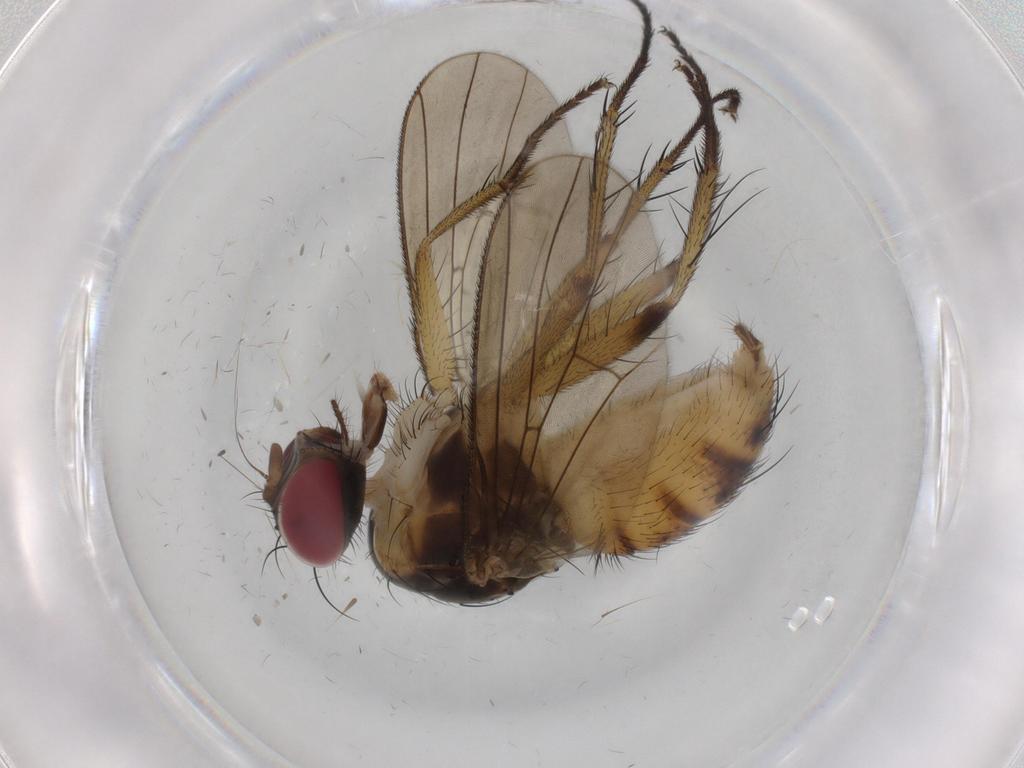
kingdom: Animalia
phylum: Arthropoda
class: Insecta
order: Diptera
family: Muscidae
